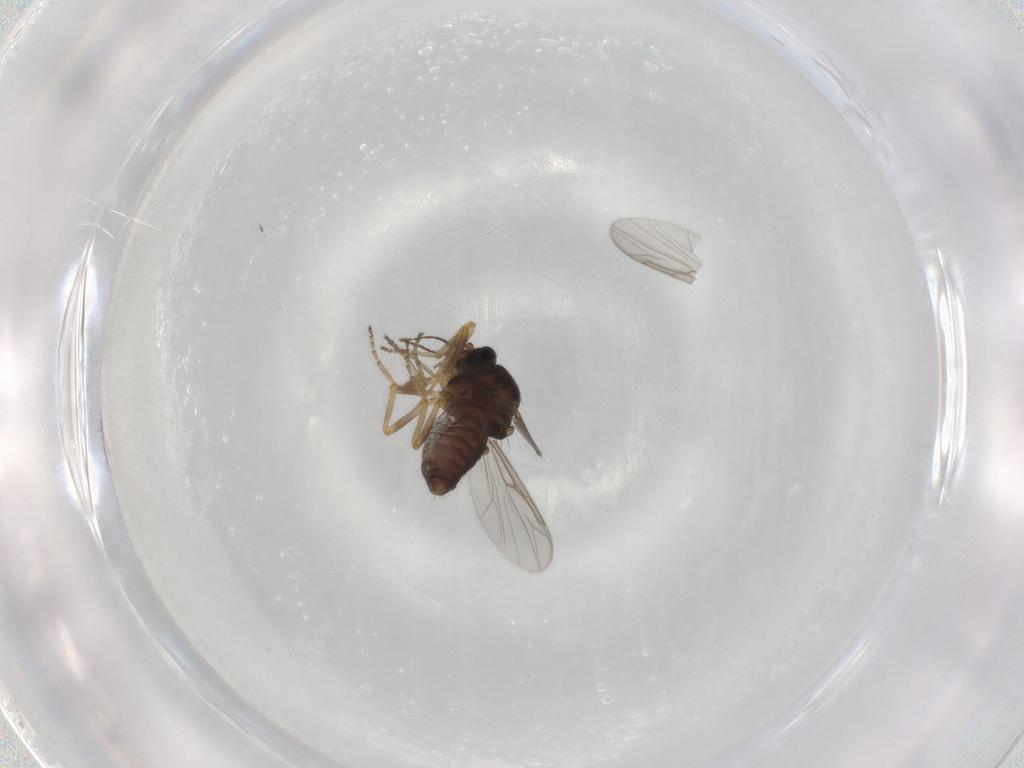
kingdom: Animalia
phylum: Arthropoda
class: Insecta
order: Diptera
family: Ceratopogonidae
